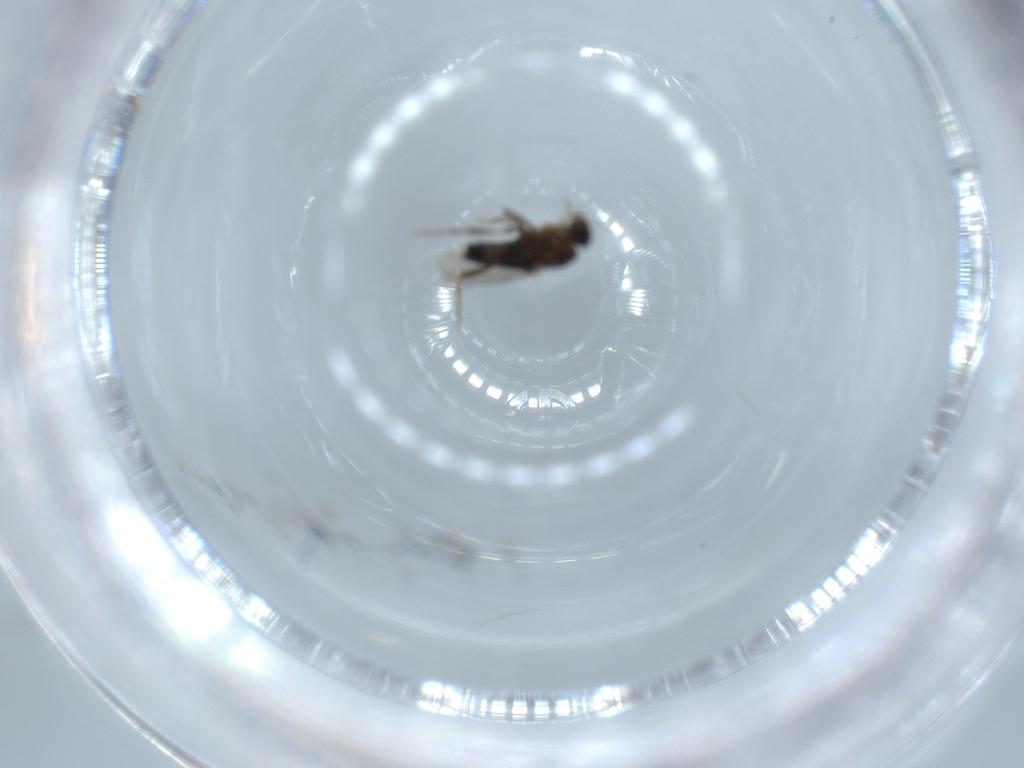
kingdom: Animalia
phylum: Arthropoda
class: Insecta
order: Diptera
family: Phoridae
